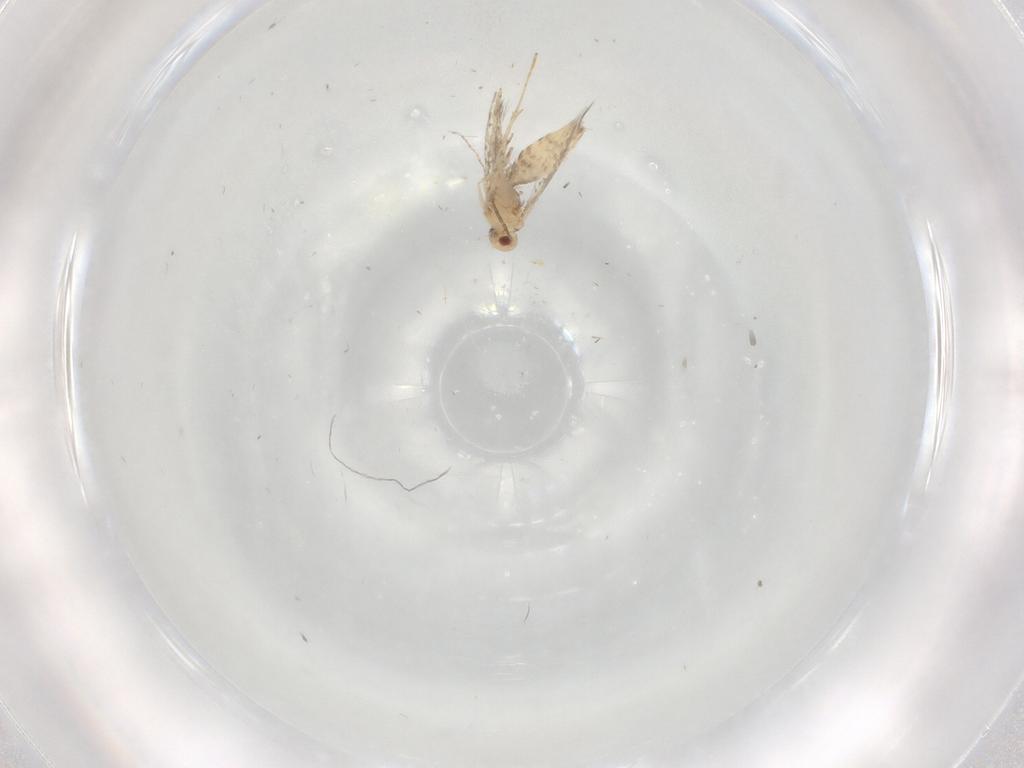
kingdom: Animalia
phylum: Arthropoda
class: Insecta
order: Lepidoptera
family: Gracillariidae
